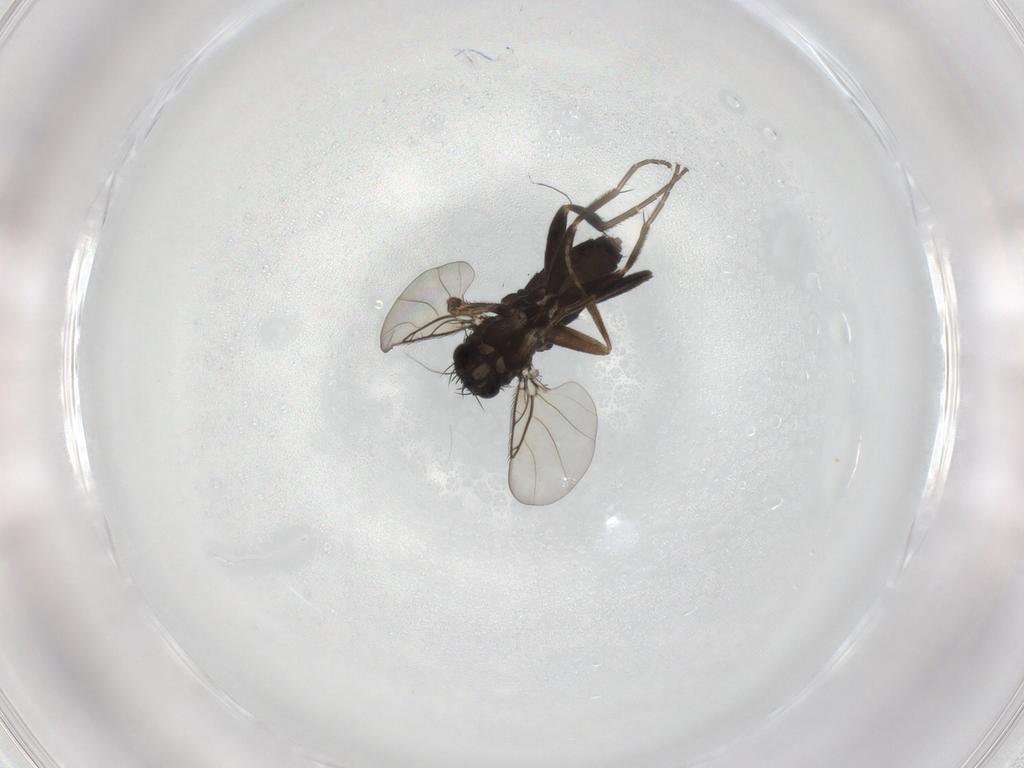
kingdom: Animalia
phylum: Arthropoda
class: Insecta
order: Diptera
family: Phoridae
